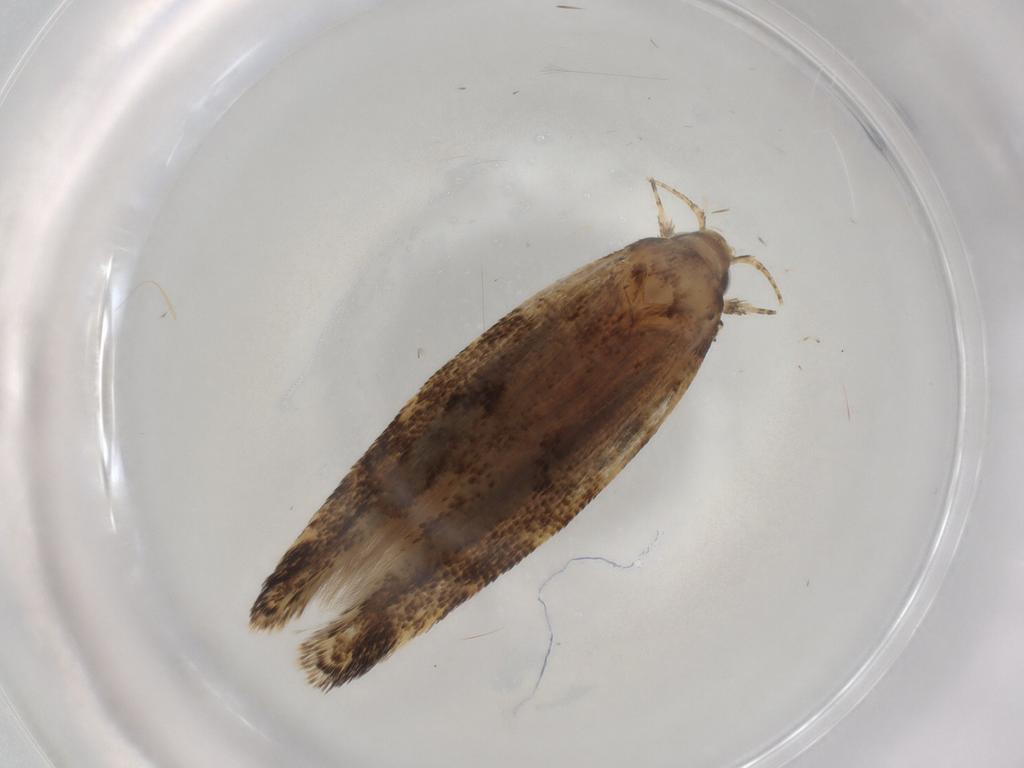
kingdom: Animalia
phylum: Arthropoda
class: Insecta
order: Lepidoptera
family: Gelechiidae
